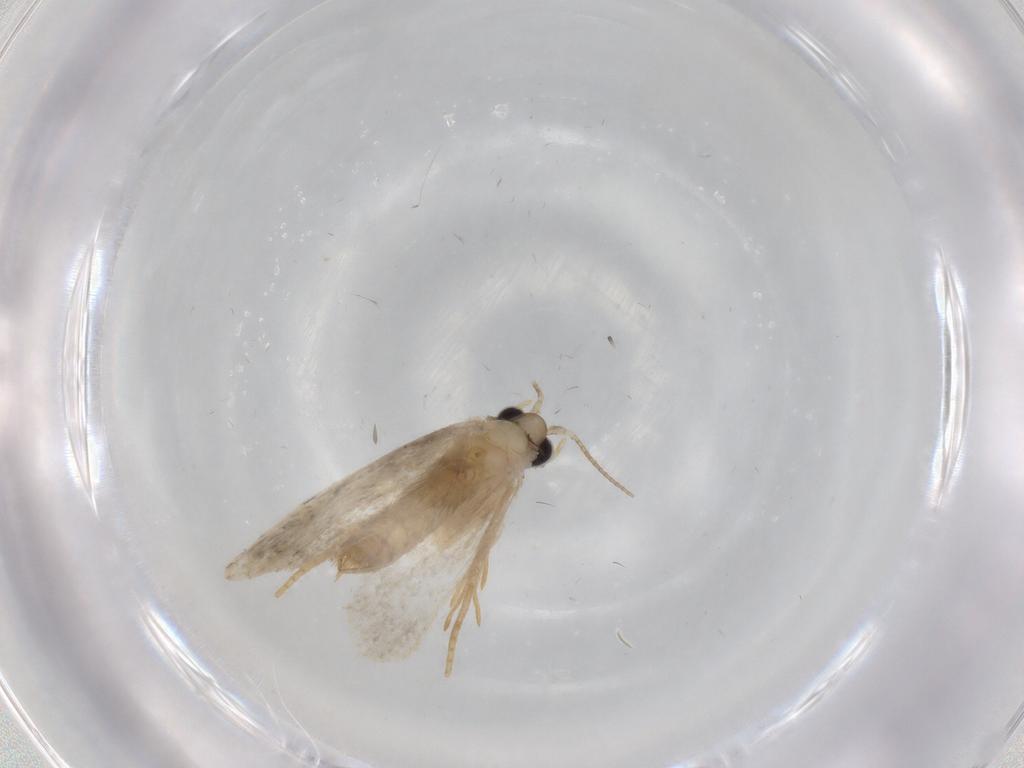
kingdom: Animalia
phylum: Arthropoda
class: Insecta
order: Lepidoptera
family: Psychidae
